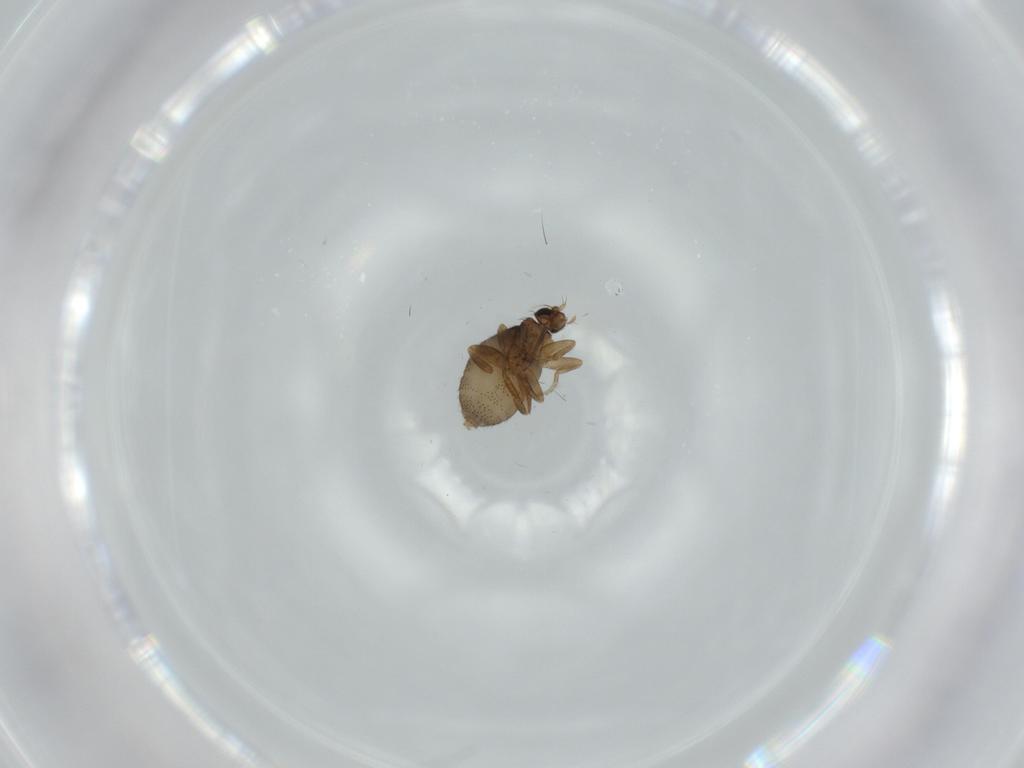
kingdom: Animalia
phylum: Arthropoda
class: Insecta
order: Diptera
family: Phoridae
